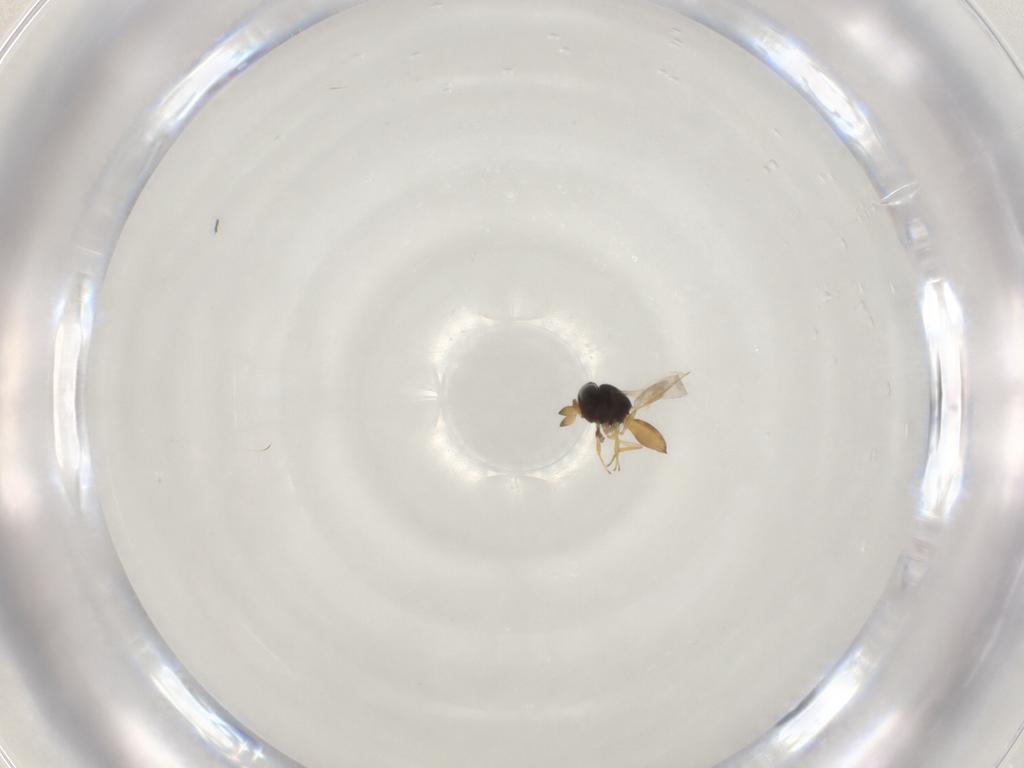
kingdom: Animalia
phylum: Arthropoda
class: Insecta
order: Hymenoptera
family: Scelionidae
